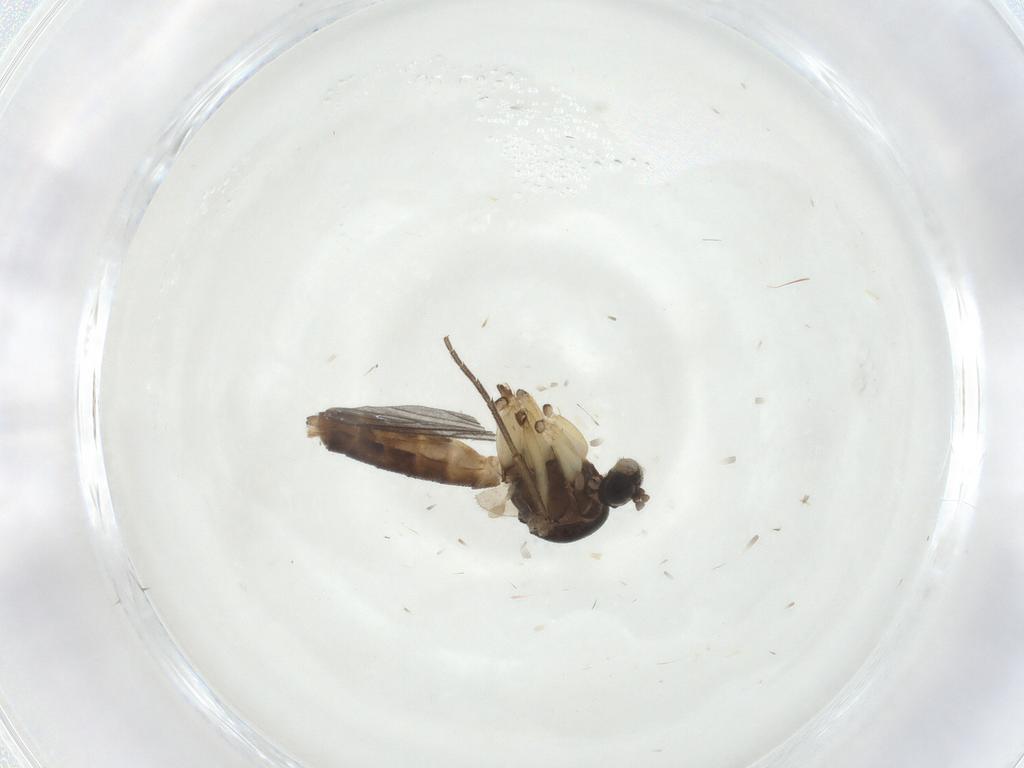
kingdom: Animalia
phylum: Arthropoda
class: Insecta
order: Diptera
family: Sciaridae
